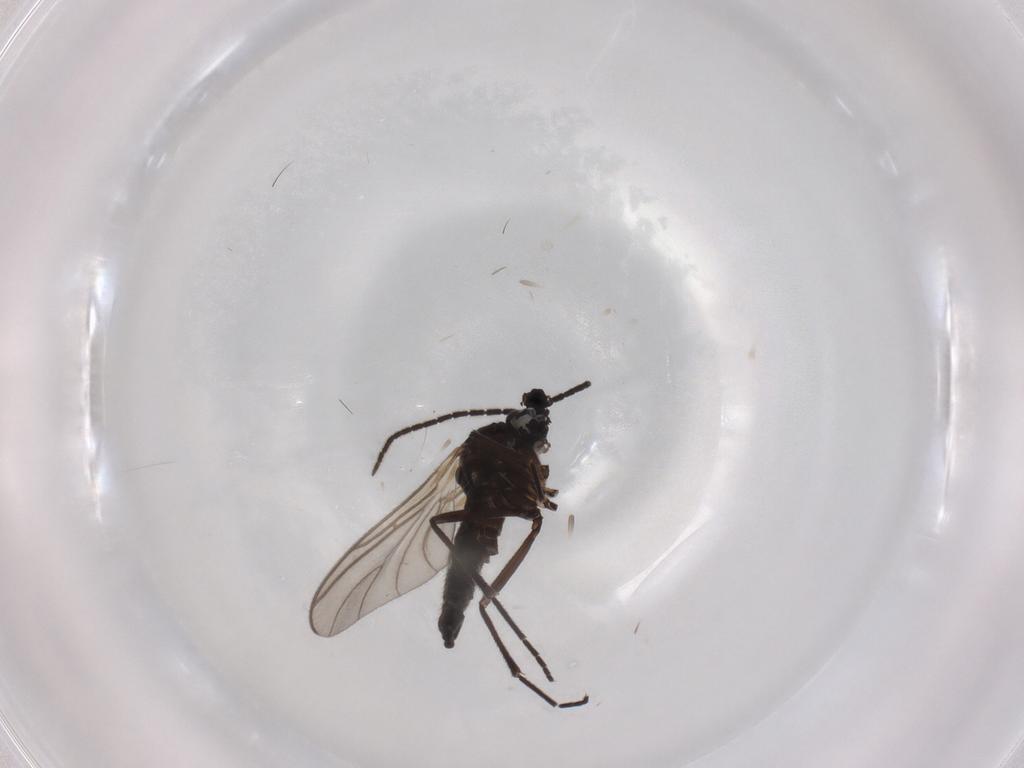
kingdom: Animalia
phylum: Arthropoda
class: Insecta
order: Diptera
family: Sciaridae
